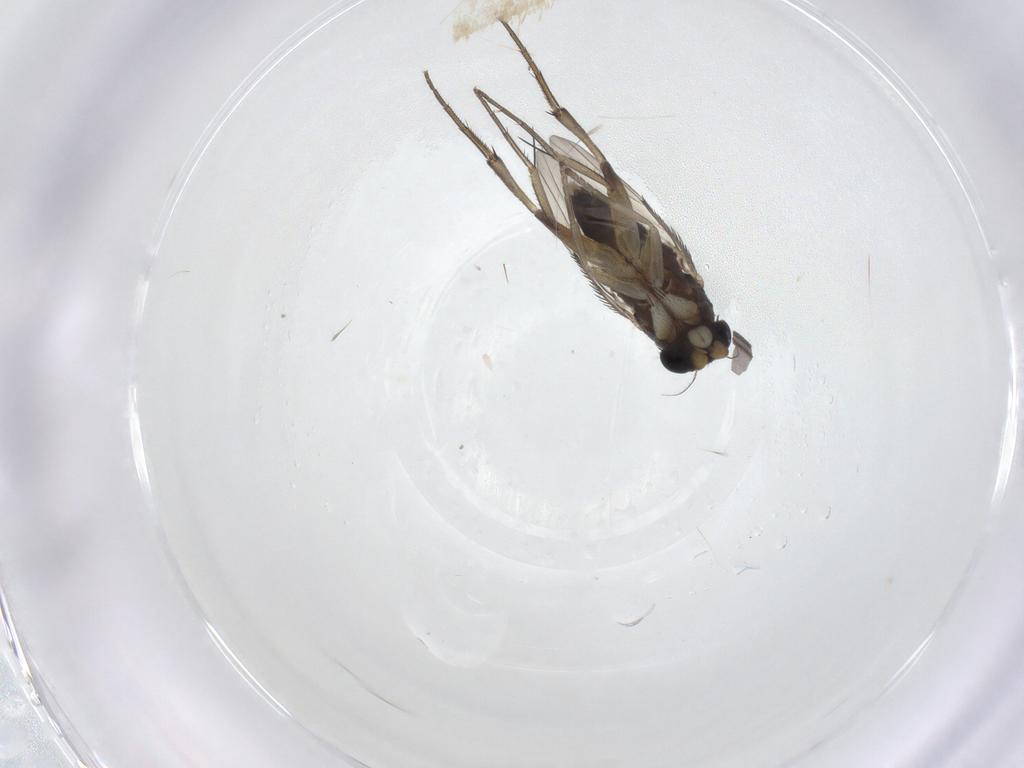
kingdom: Animalia
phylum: Arthropoda
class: Insecta
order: Diptera
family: Phoridae
